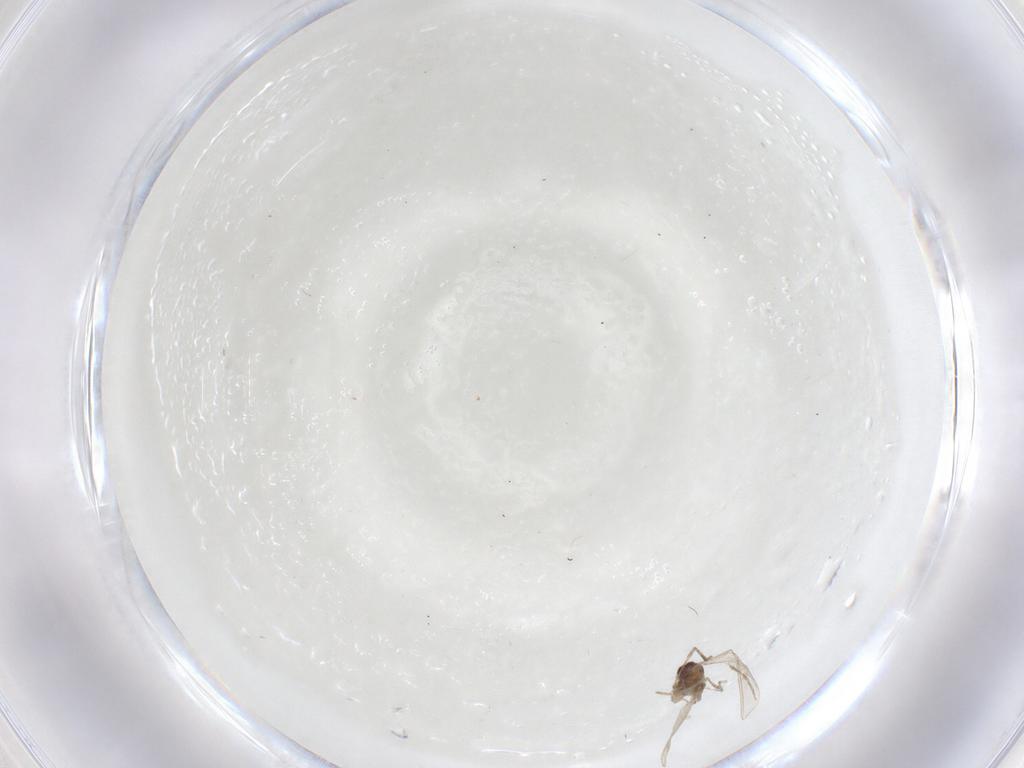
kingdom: Animalia
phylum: Arthropoda
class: Insecta
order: Diptera
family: Cecidomyiidae
